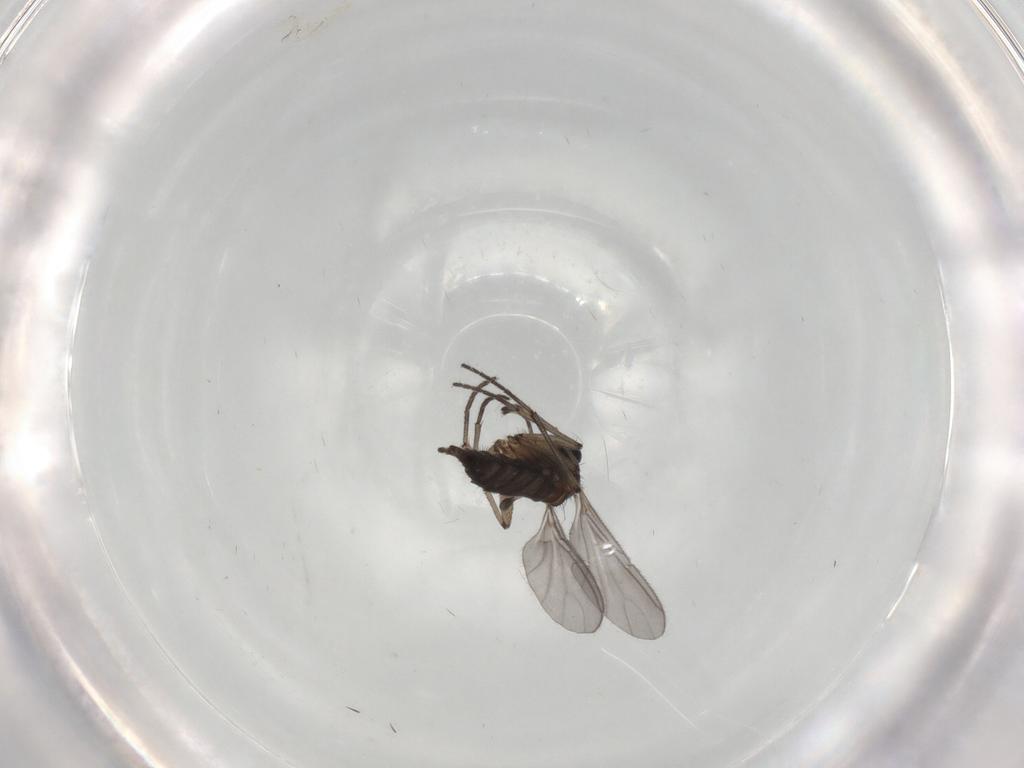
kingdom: Animalia
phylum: Arthropoda
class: Insecta
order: Diptera
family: Sciaridae
